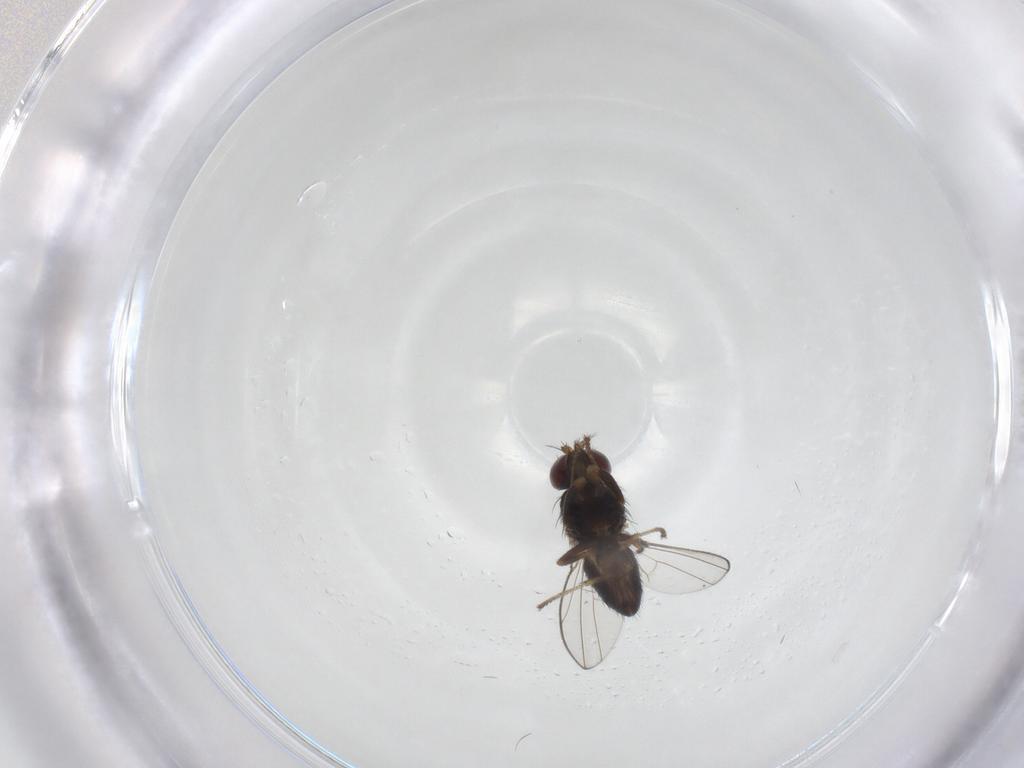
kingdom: Animalia
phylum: Arthropoda
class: Insecta
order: Diptera
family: Ephydridae
